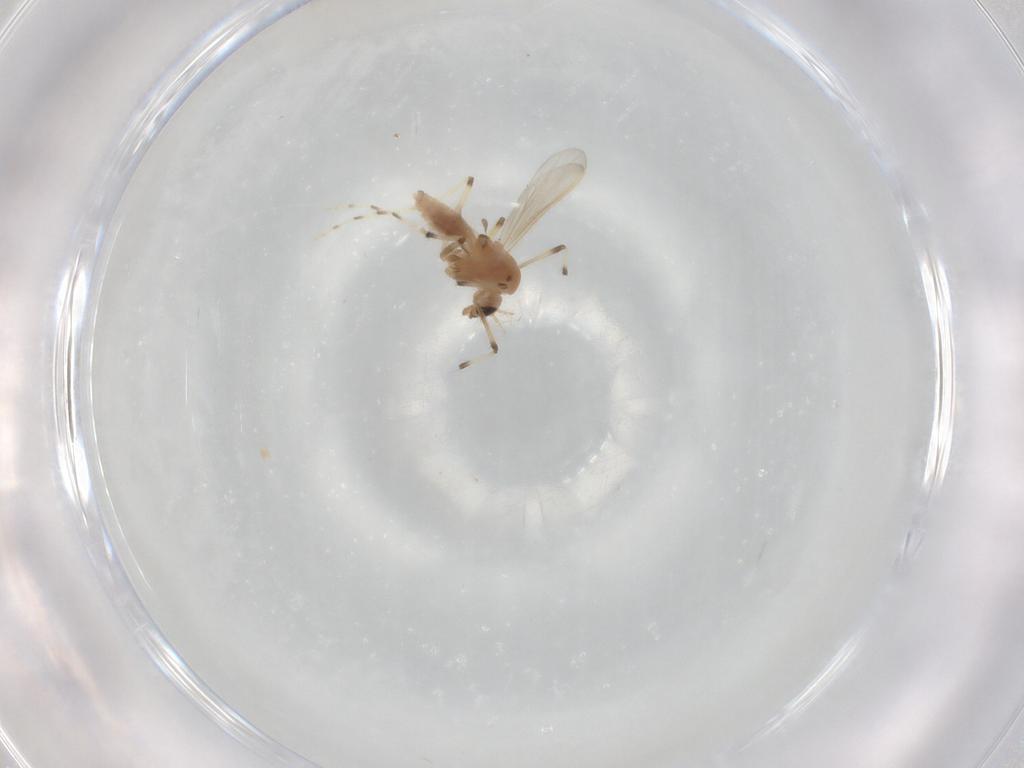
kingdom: Animalia
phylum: Arthropoda
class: Insecta
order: Diptera
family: Chironomidae
